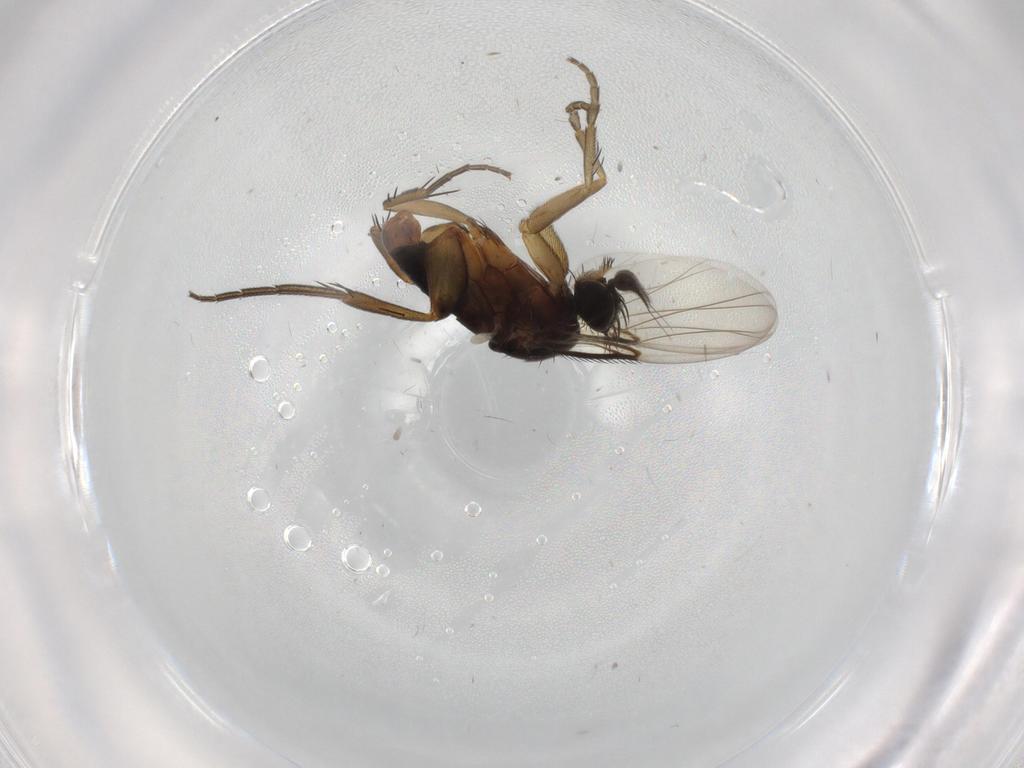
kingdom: Animalia
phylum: Arthropoda
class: Insecta
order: Diptera
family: Phoridae
